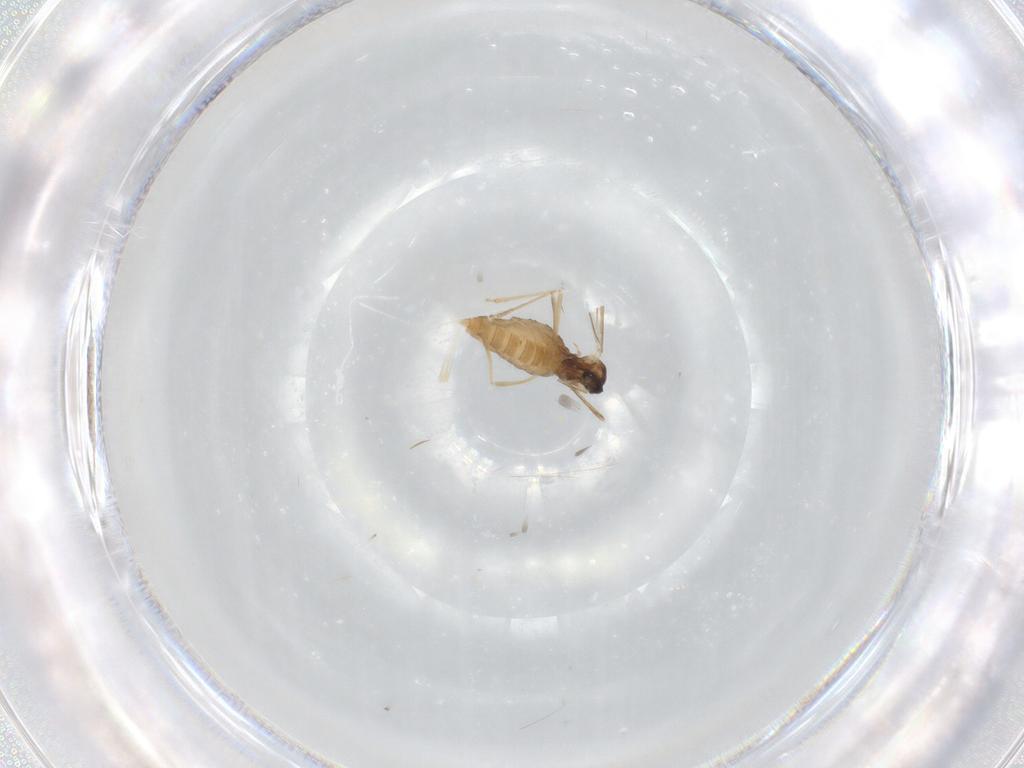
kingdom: Animalia
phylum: Arthropoda
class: Insecta
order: Diptera
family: Cecidomyiidae
